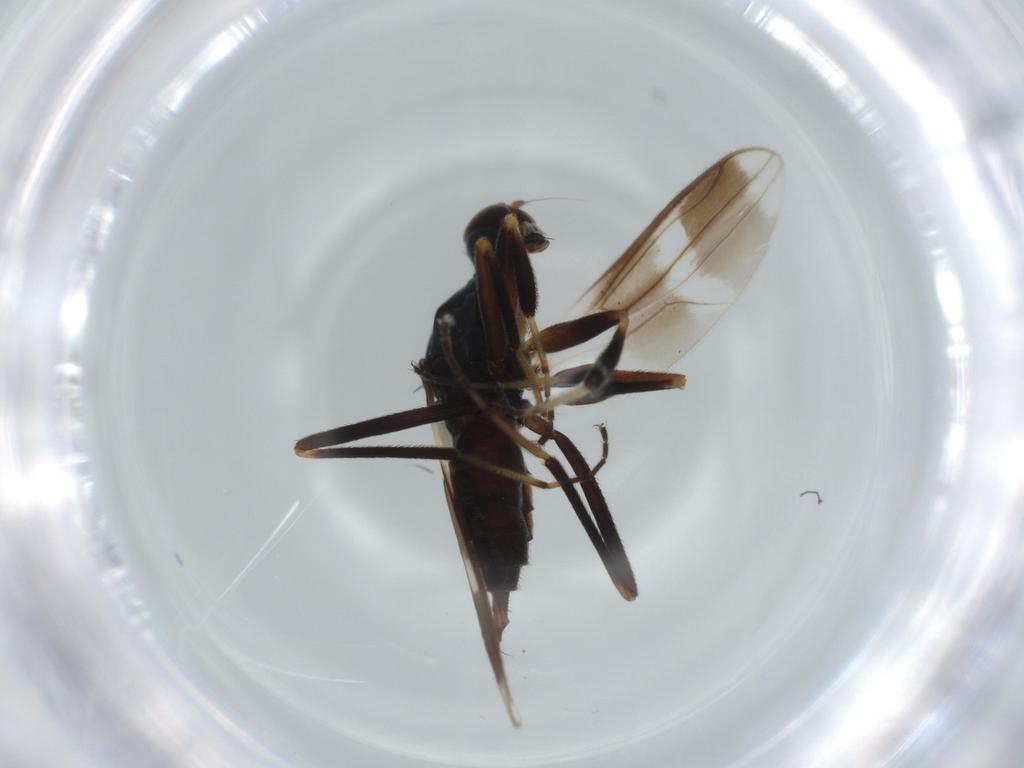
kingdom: Animalia
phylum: Arthropoda
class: Insecta
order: Diptera
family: Hybotidae
